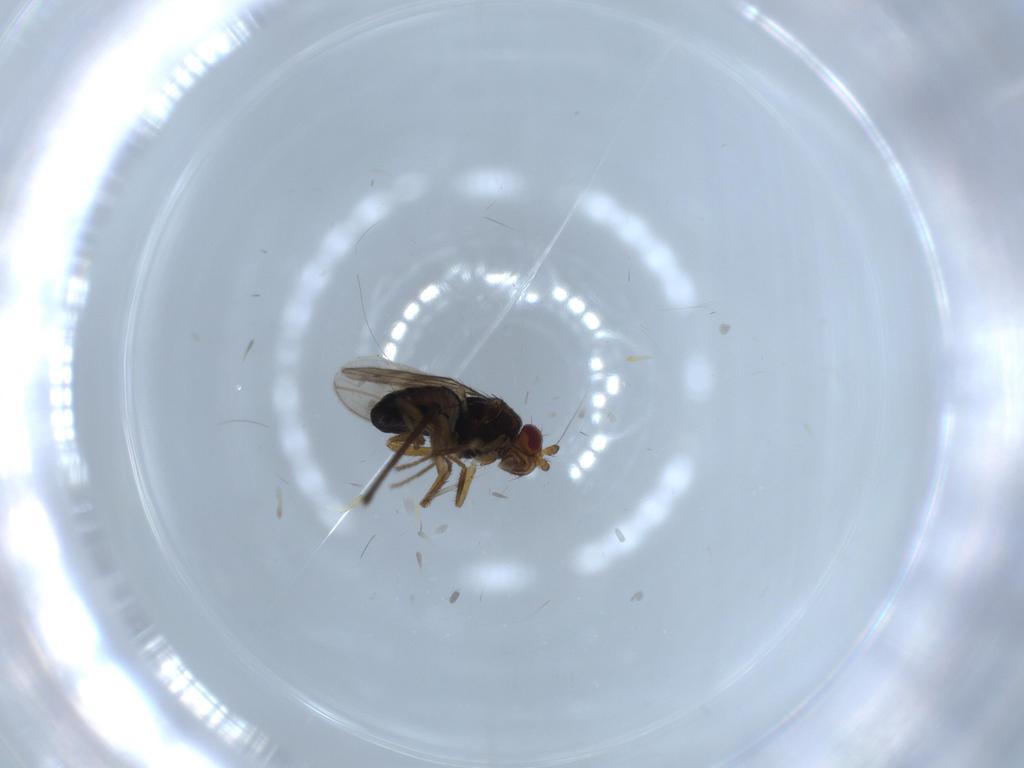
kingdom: Animalia
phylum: Arthropoda
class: Insecta
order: Diptera
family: Sphaeroceridae
